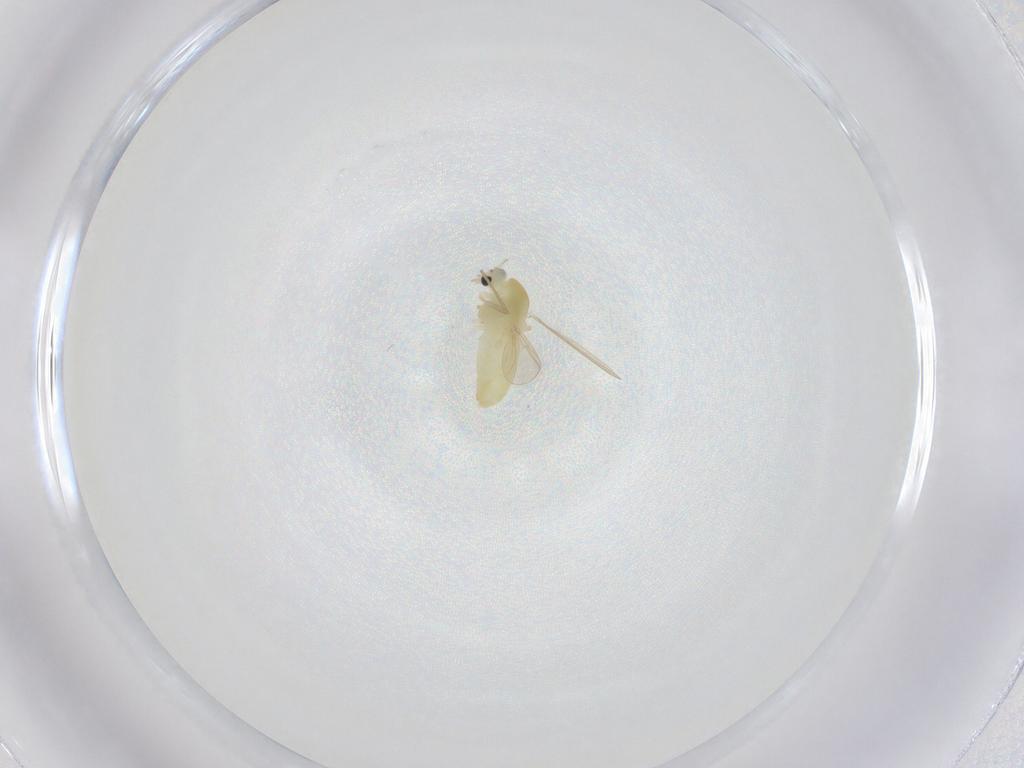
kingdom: Animalia
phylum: Arthropoda
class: Insecta
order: Diptera
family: Chironomidae
